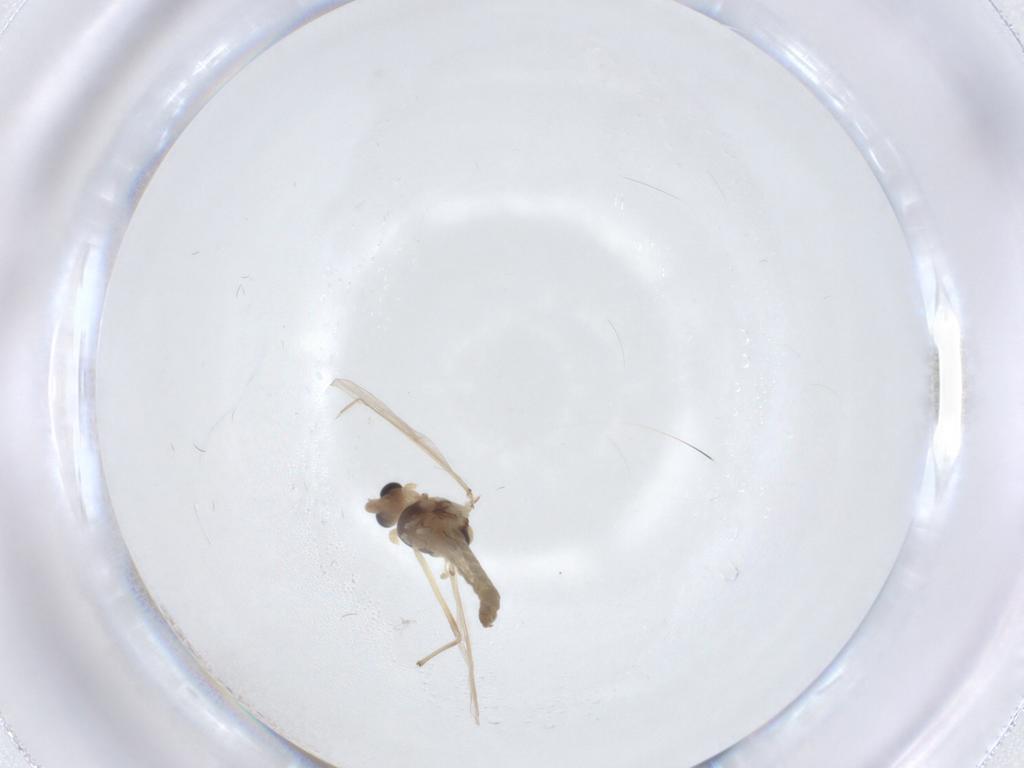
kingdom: Animalia
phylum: Arthropoda
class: Insecta
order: Diptera
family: Chironomidae
